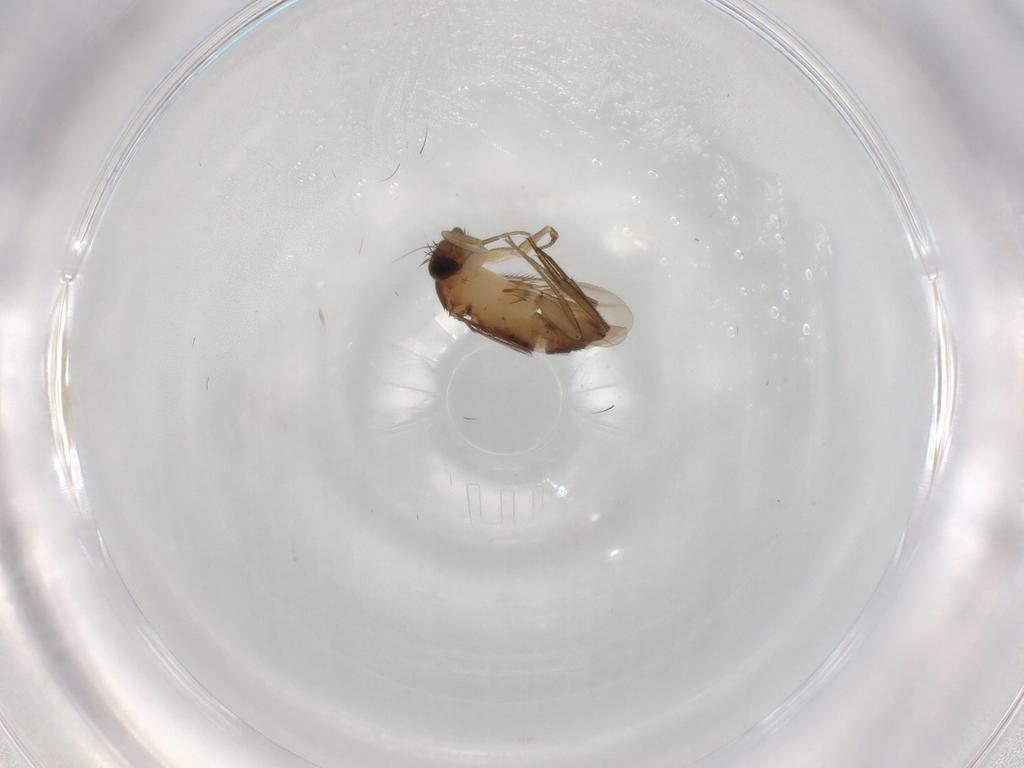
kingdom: Animalia
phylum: Arthropoda
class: Insecta
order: Diptera
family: Phoridae
